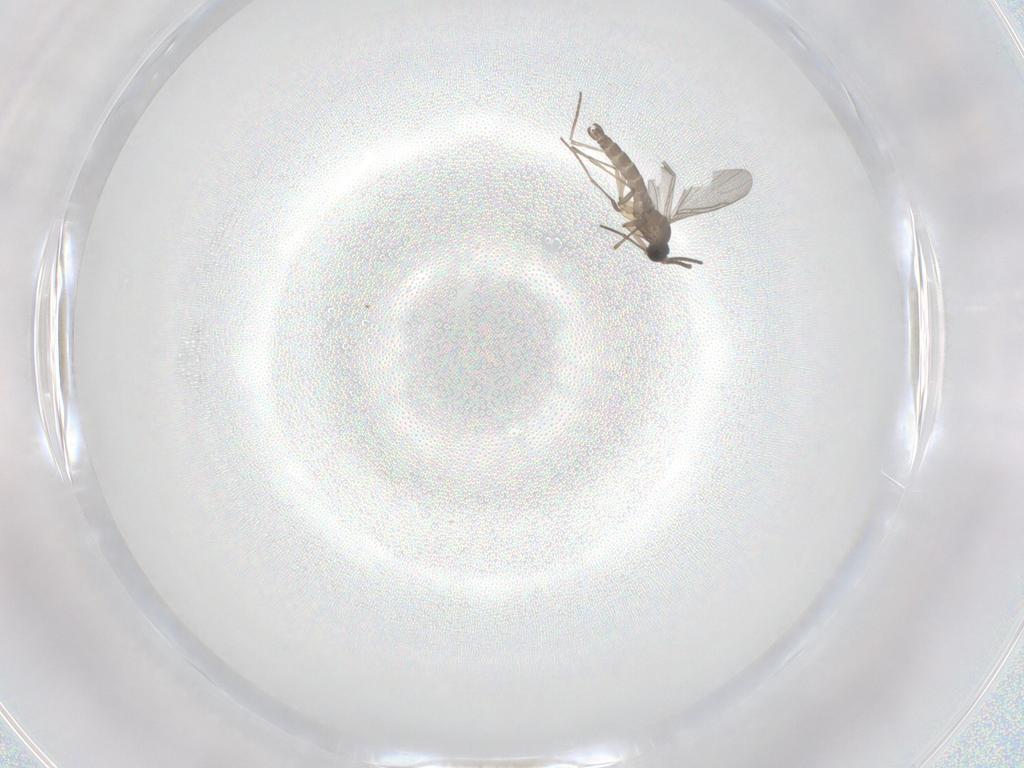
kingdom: Animalia
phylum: Arthropoda
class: Insecta
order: Diptera
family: Sciaridae
